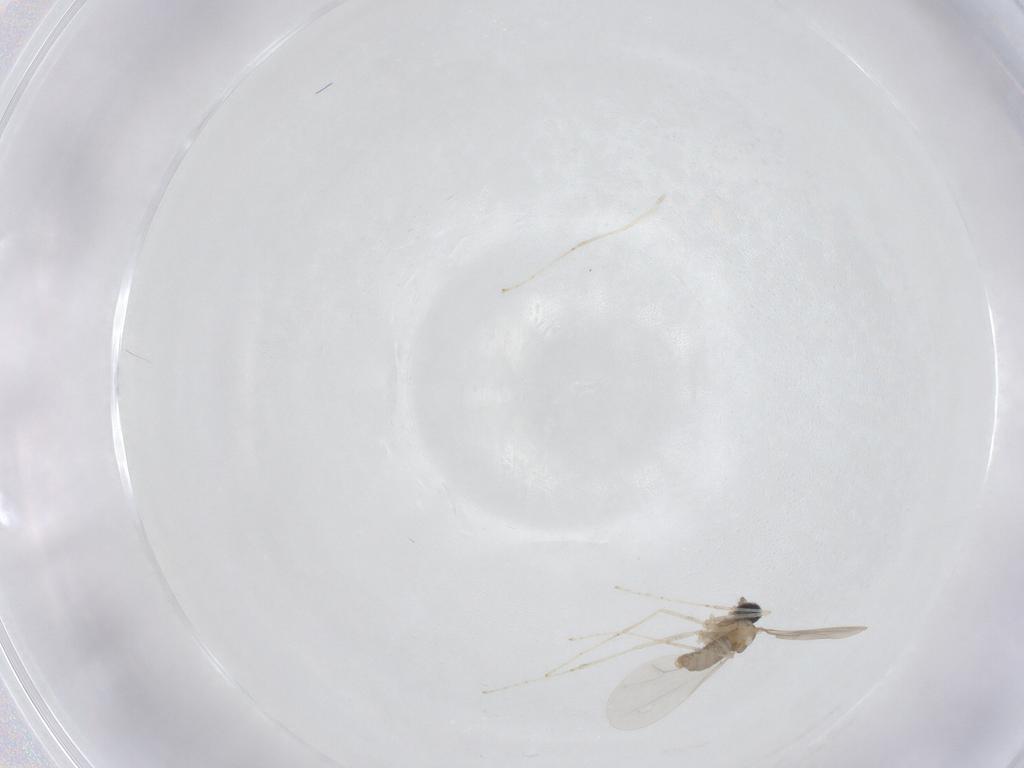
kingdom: Animalia
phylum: Arthropoda
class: Insecta
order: Diptera
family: Cecidomyiidae
